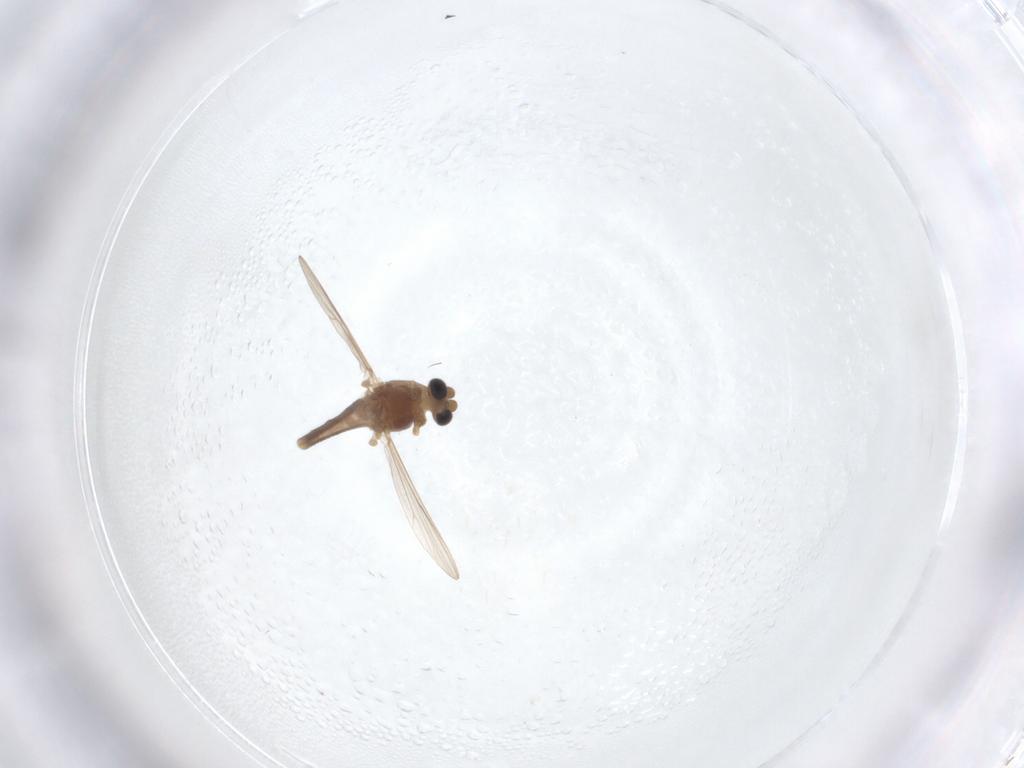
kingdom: Animalia
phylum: Arthropoda
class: Insecta
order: Diptera
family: Chironomidae
